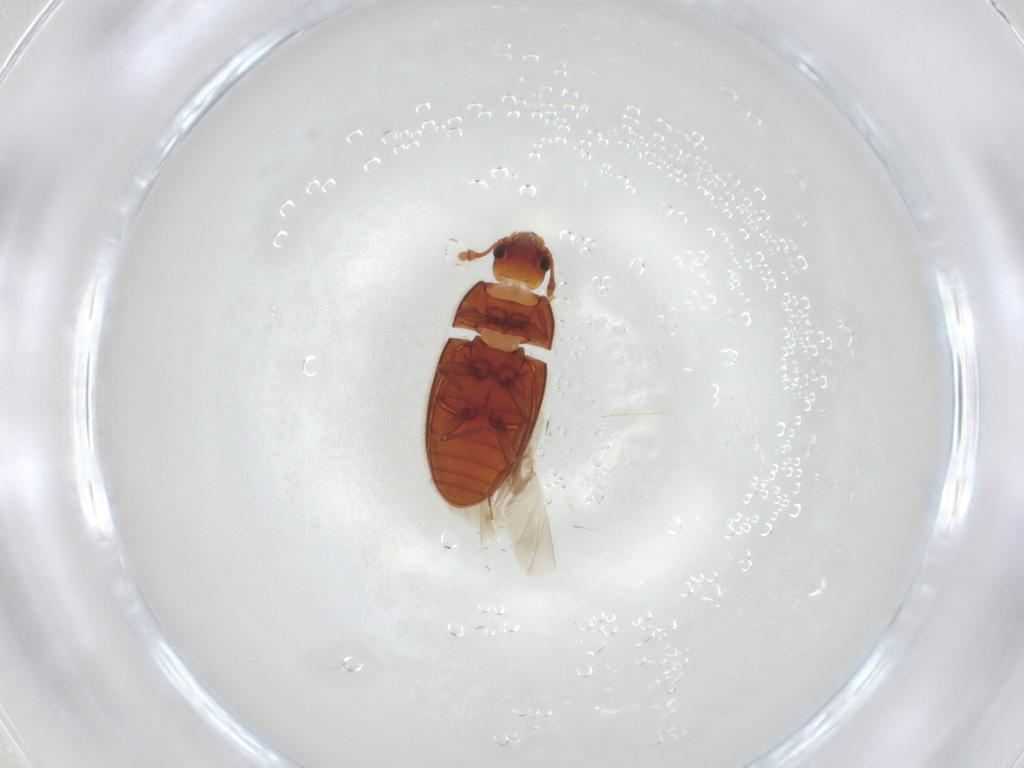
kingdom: Animalia
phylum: Arthropoda
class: Insecta
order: Coleoptera
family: Biphyllidae
